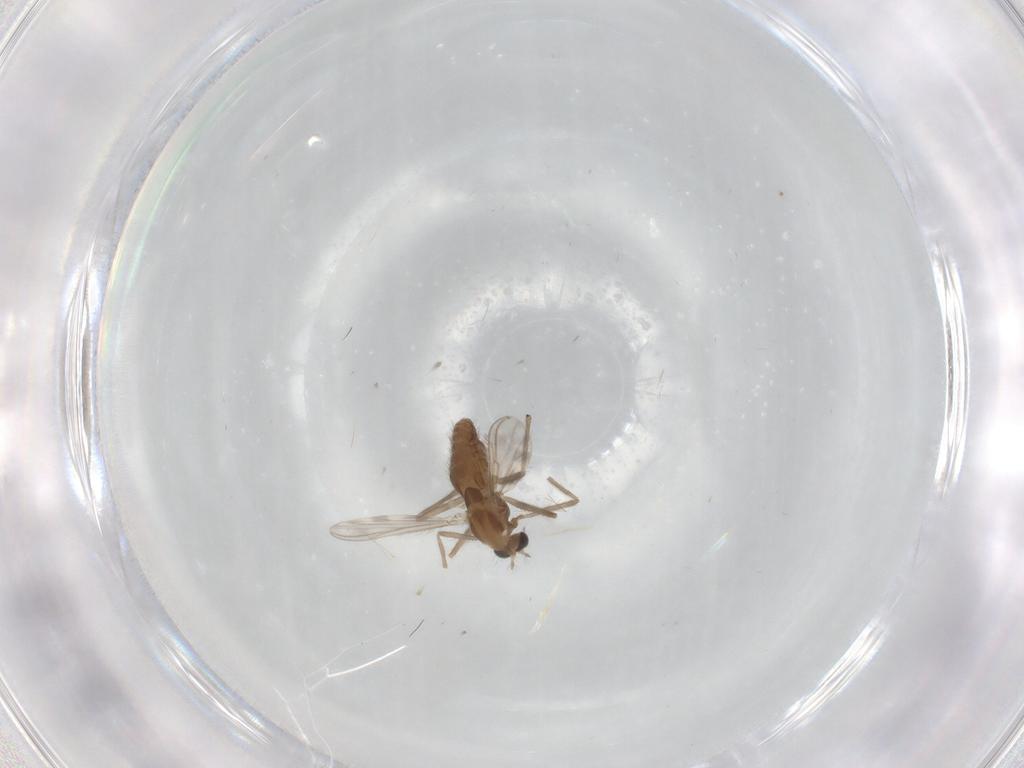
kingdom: Animalia
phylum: Arthropoda
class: Insecta
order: Diptera
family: Chironomidae
